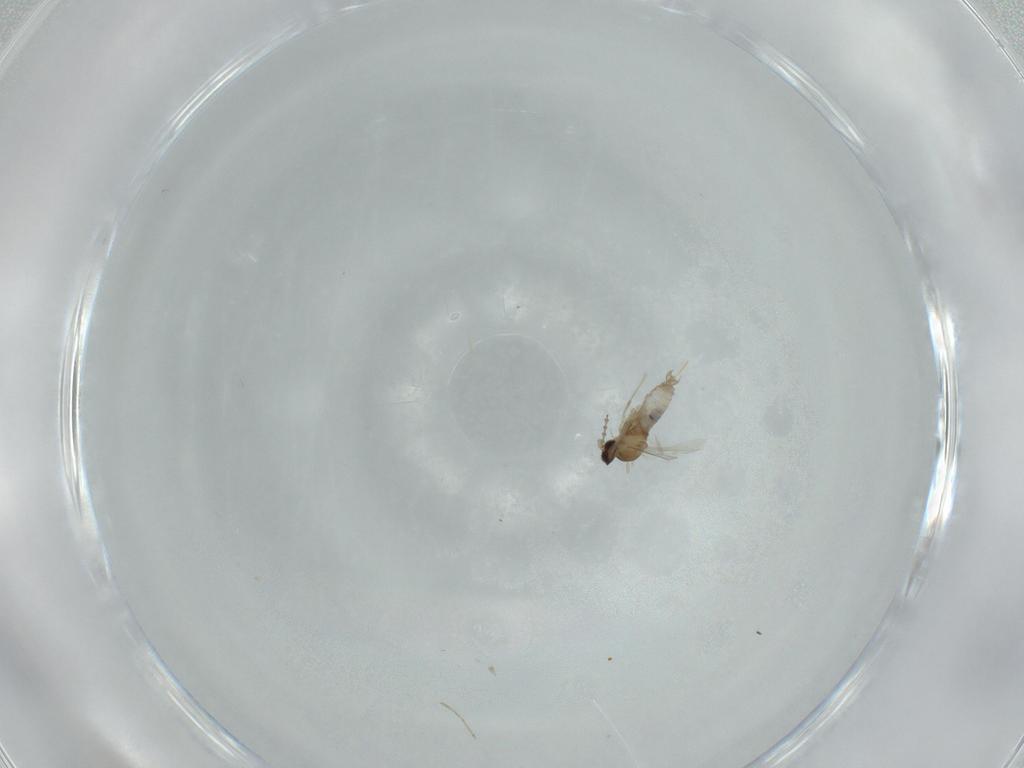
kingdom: Animalia
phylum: Arthropoda
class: Insecta
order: Diptera
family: Cecidomyiidae
